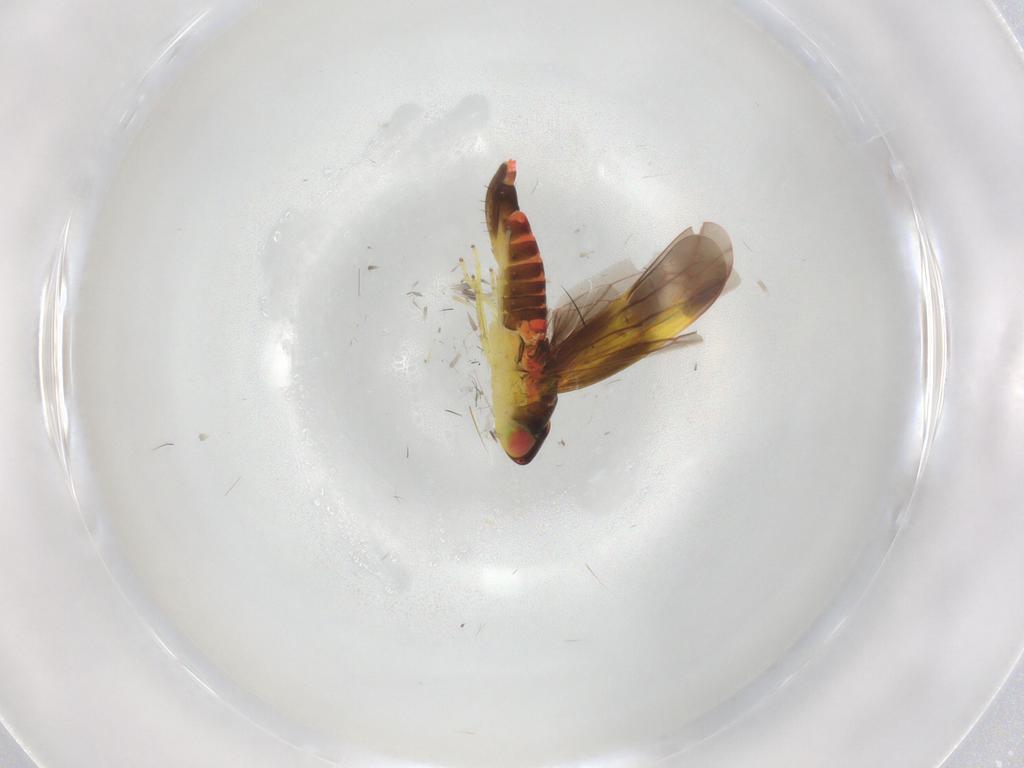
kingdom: Animalia
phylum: Arthropoda
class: Insecta
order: Hemiptera
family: Cicadellidae
